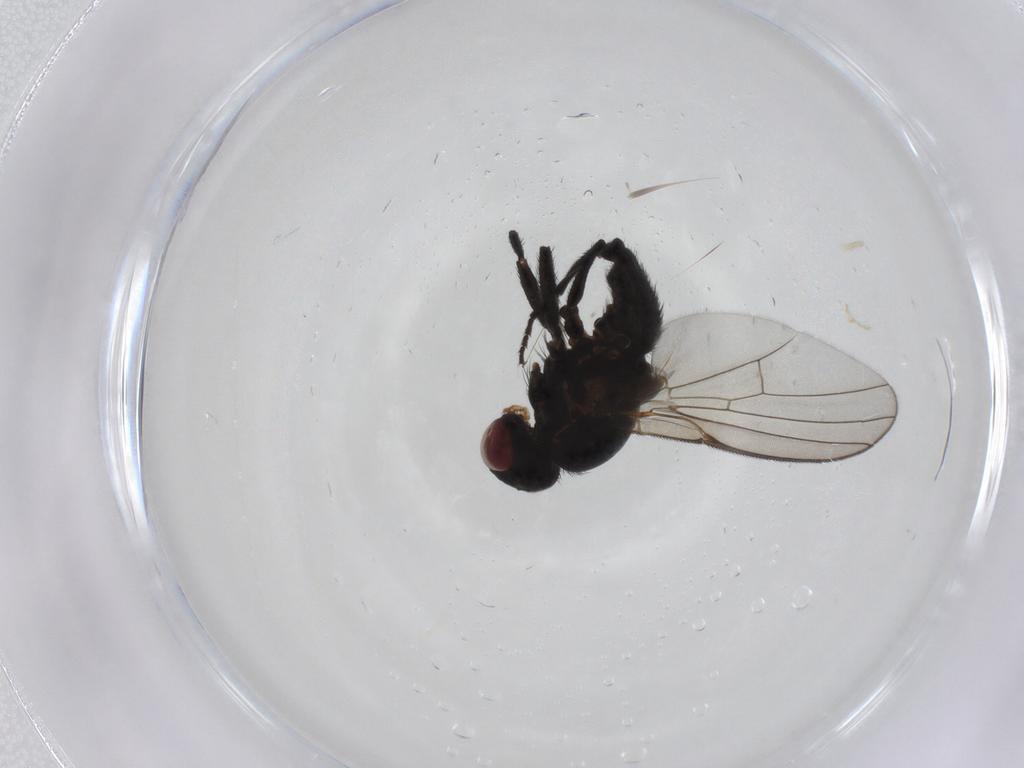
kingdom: Animalia
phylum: Arthropoda
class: Insecta
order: Diptera
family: Scathophagidae
